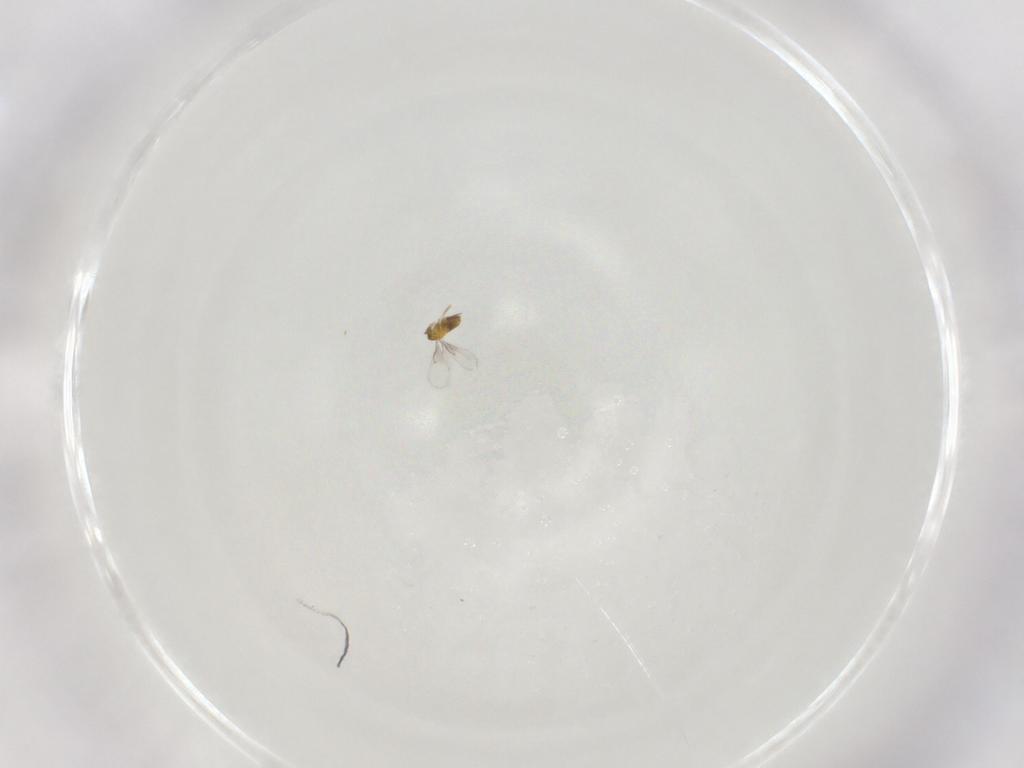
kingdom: Animalia
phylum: Arthropoda
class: Insecta
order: Hymenoptera
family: Trichogrammatidae
